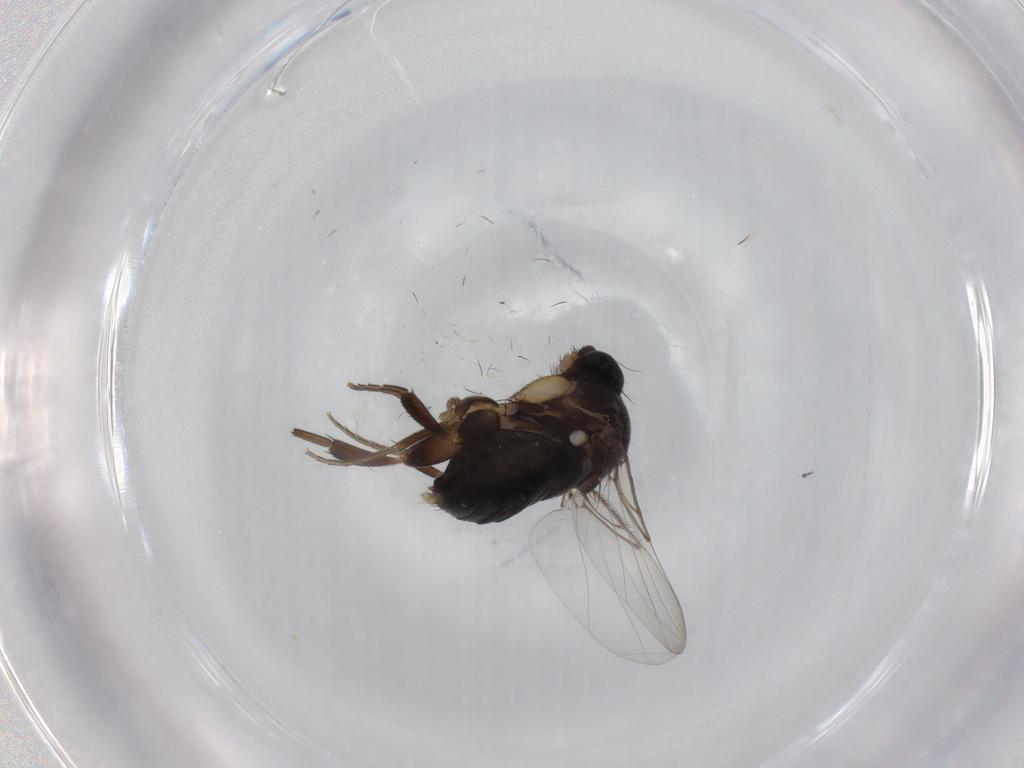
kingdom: Animalia
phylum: Arthropoda
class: Insecta
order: Diptera
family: Phoridae
